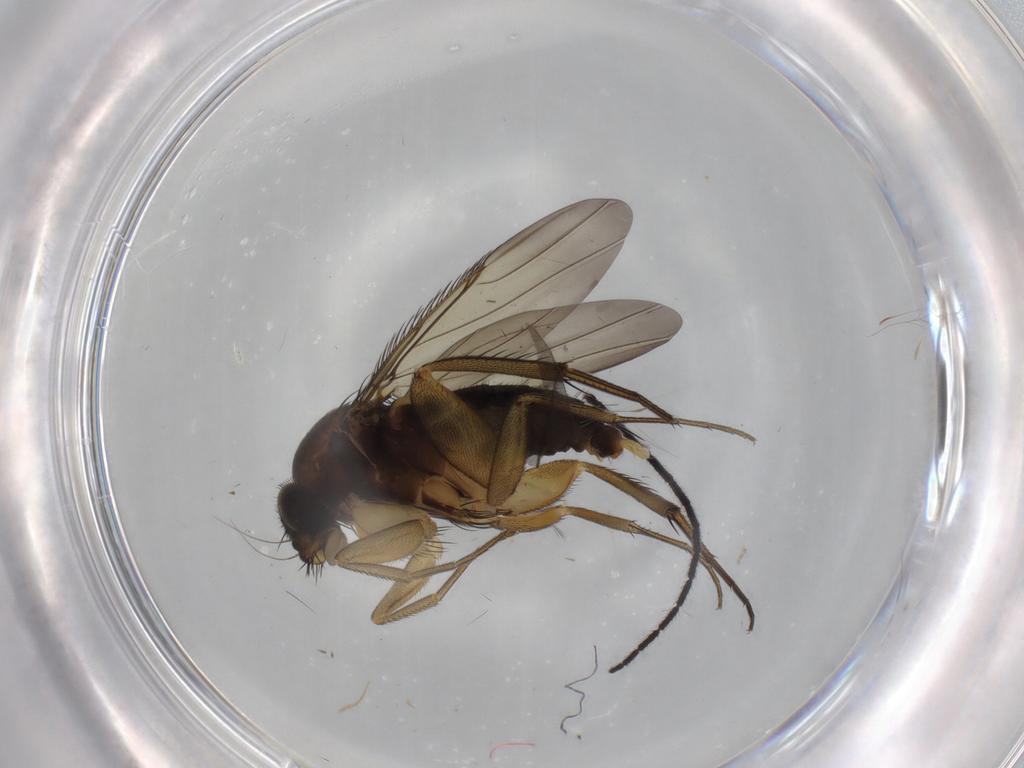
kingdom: Animalia
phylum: Arthropoda
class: Insecta
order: Diptera
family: Phoridae
